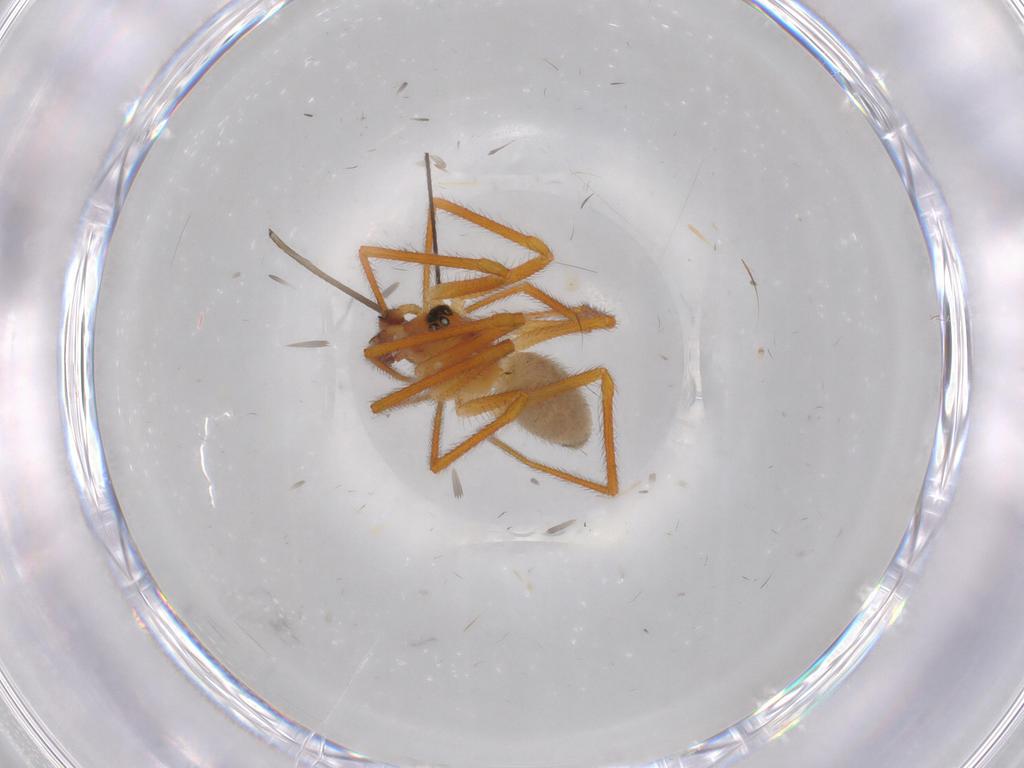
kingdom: Animalia
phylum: Arthropoda
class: Arachnida
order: Araneae
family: Linyphiidae
